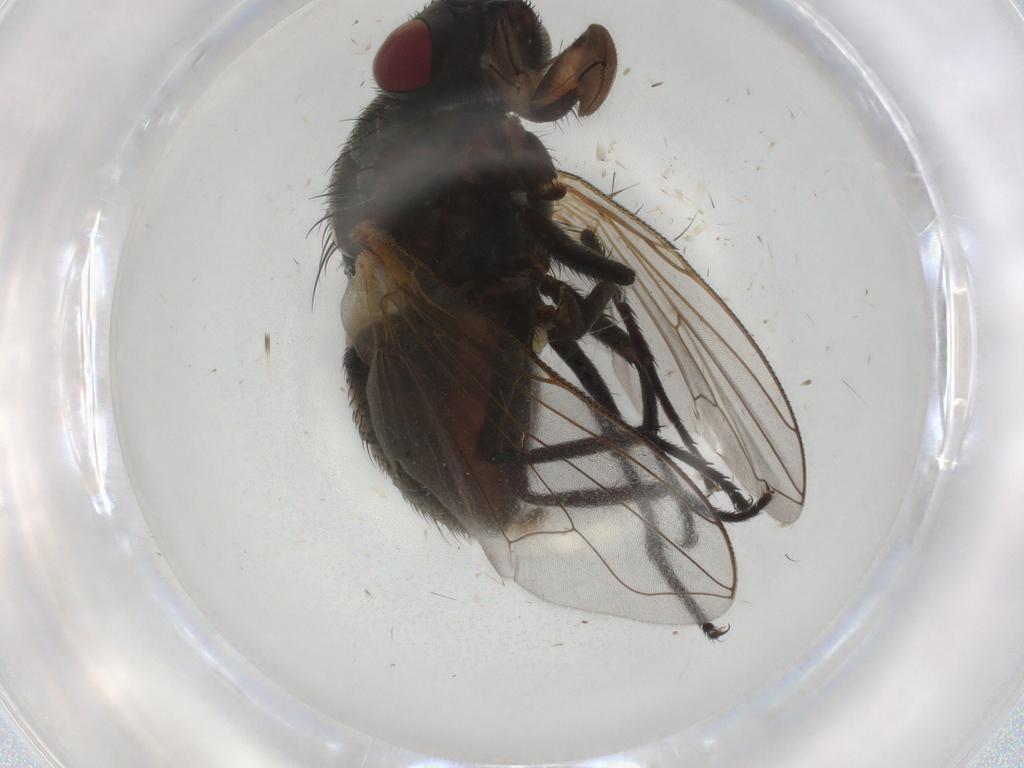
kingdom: Animalia
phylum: Arthropoda
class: Insecta
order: Diptera
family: Muscidae
